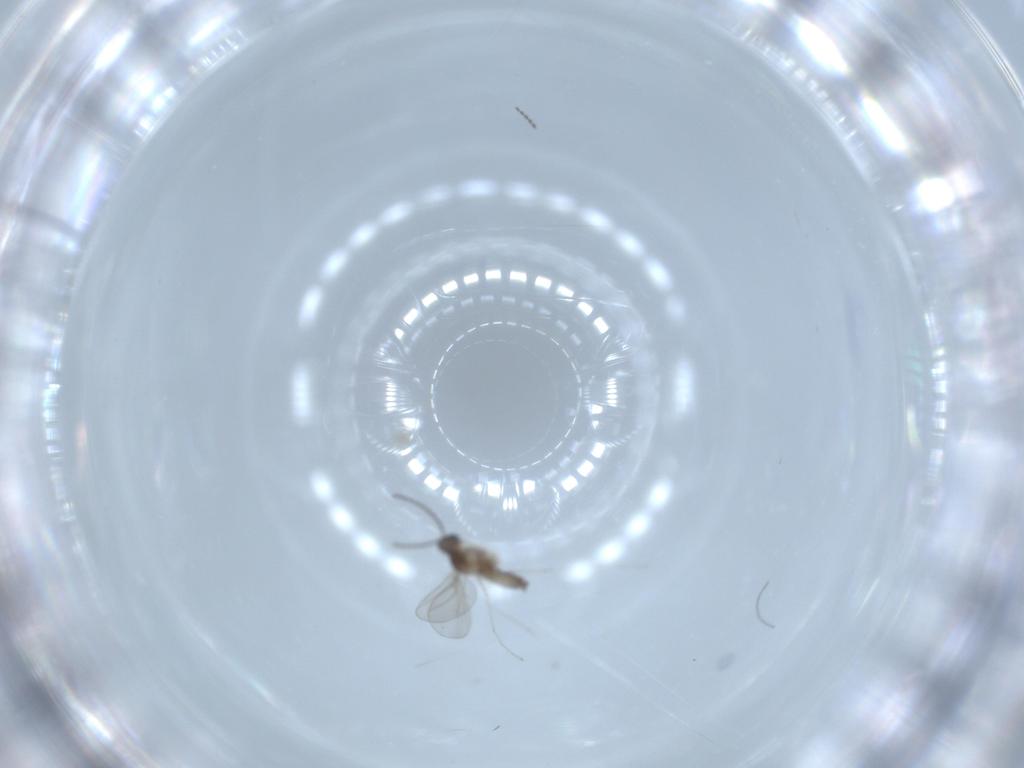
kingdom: Animalia
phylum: Arthropoda
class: Insecta
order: Diptera
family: Cecidomyiidae
